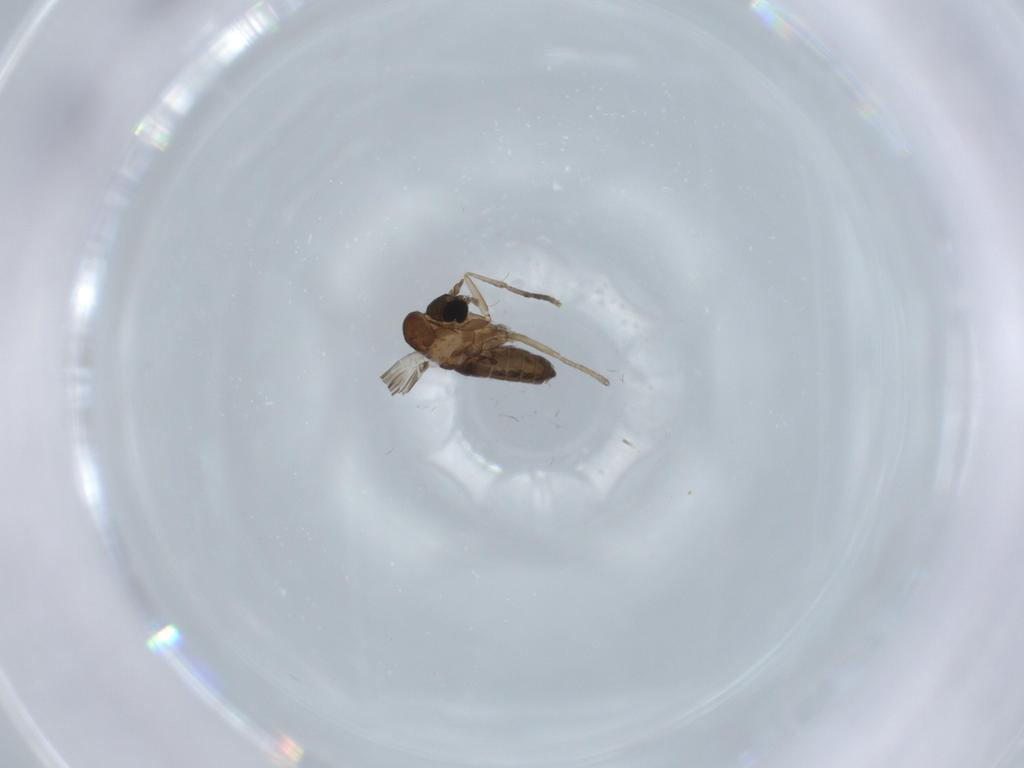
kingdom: Animalia
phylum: Arthropoda
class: Insecta
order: Diptera
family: Psychodidae
